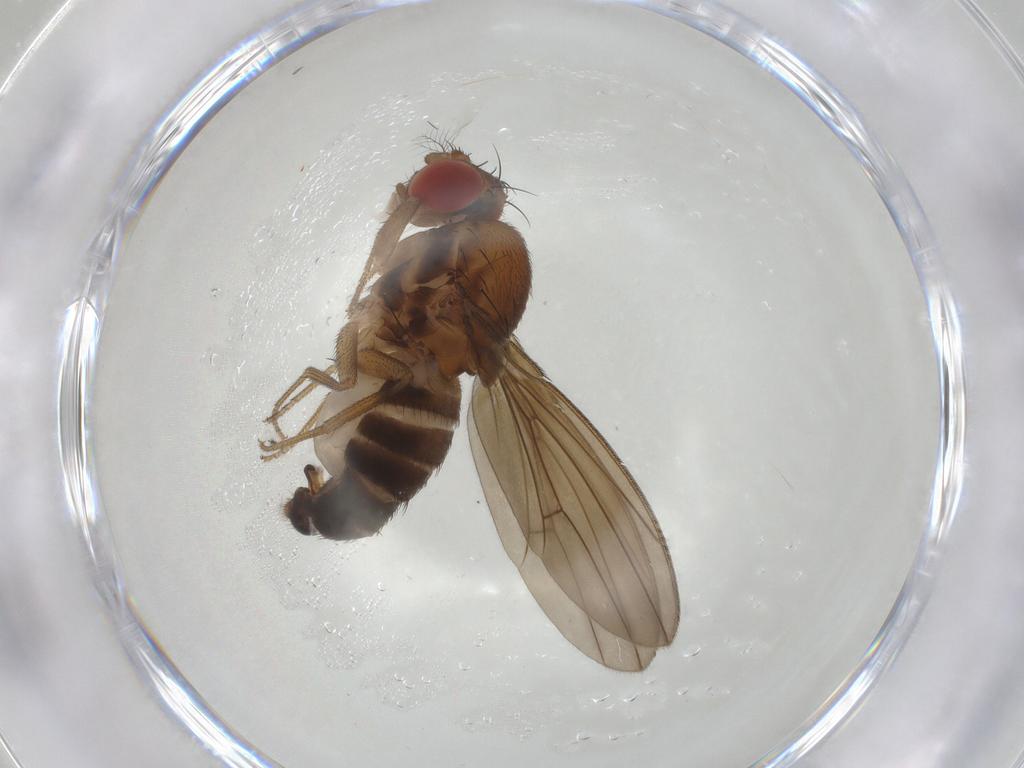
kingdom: Animalia
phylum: Arthropoda
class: Insecta
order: Diptera
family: Drosophilidae
